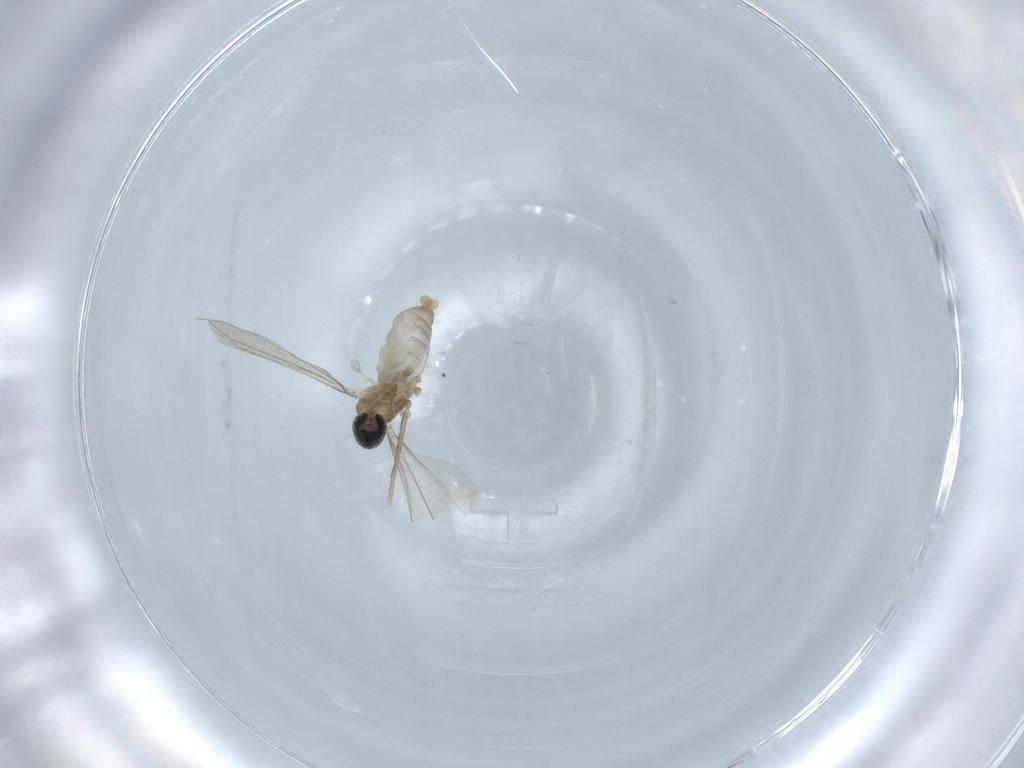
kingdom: Animalia
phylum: Arthropoda
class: Insecta
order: Diptera
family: Cecidomyiidae
